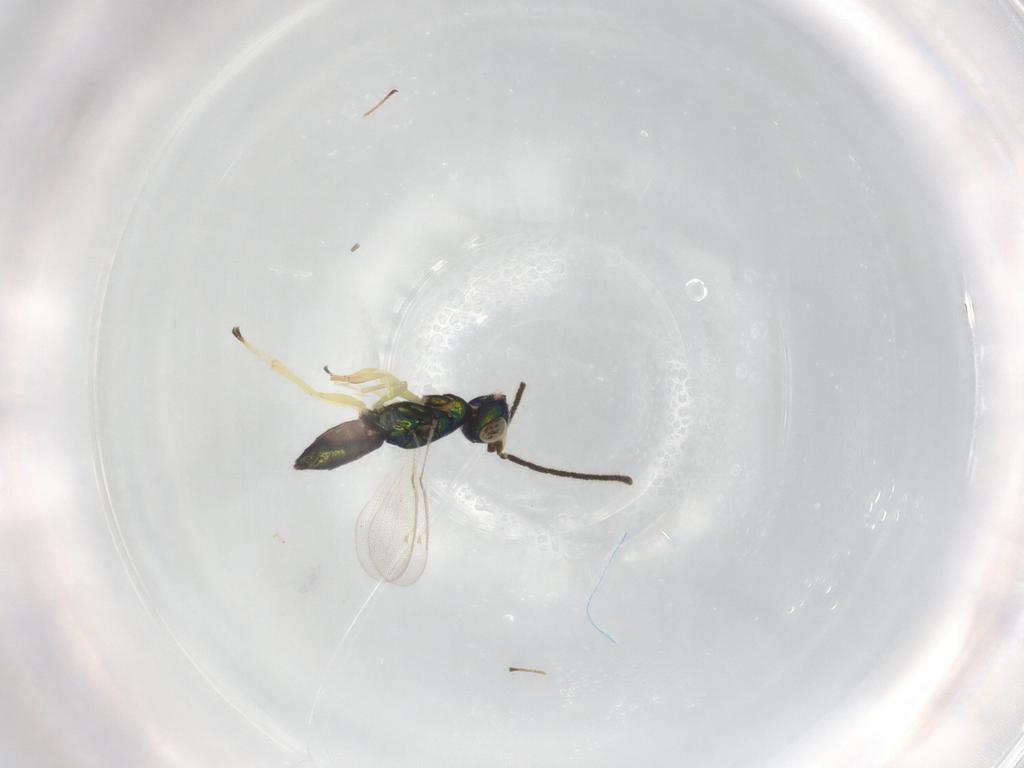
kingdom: Animalia
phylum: Arthropoda
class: Insecta
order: Hymenoptera
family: Pteromalidae
